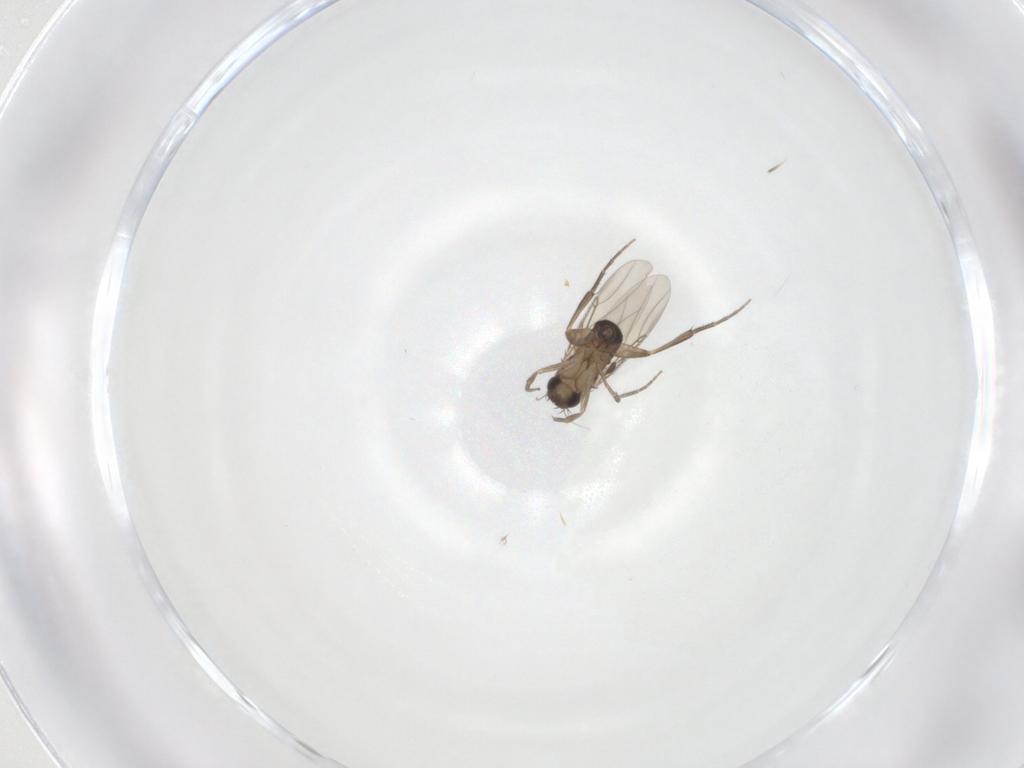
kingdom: Animalia
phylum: Arthropoda
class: Insecta
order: Diptera
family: Phoridae
